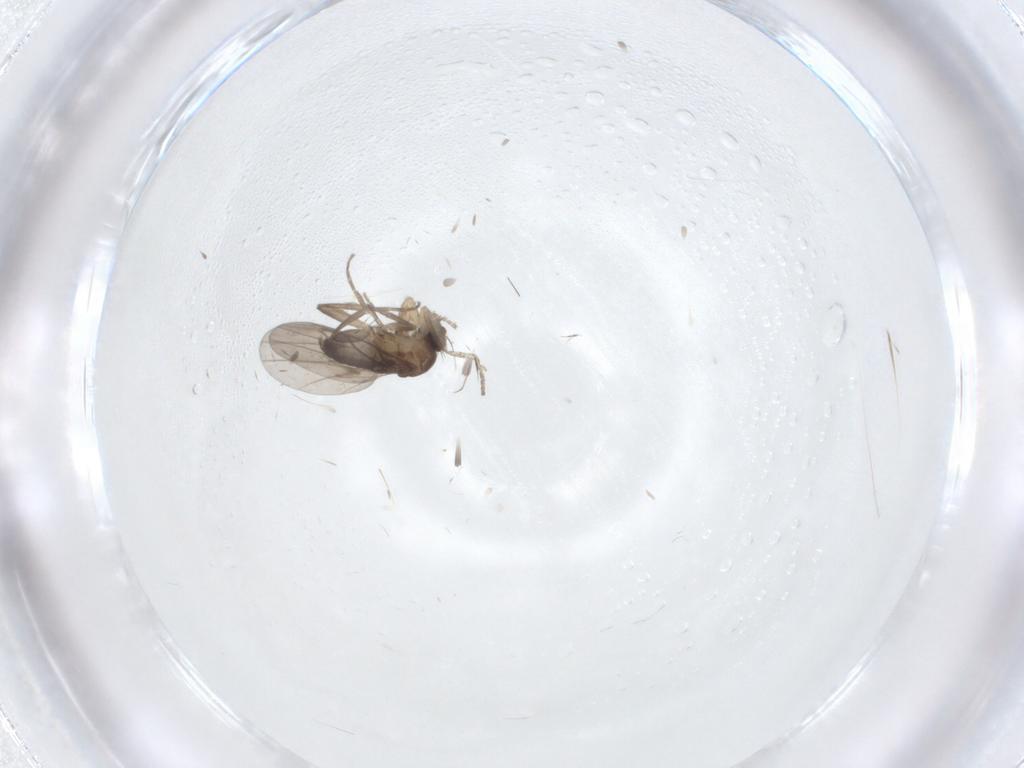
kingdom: Animalia
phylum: Arthropoda
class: Insecta
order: Diptera
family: Cecidomyiidae
